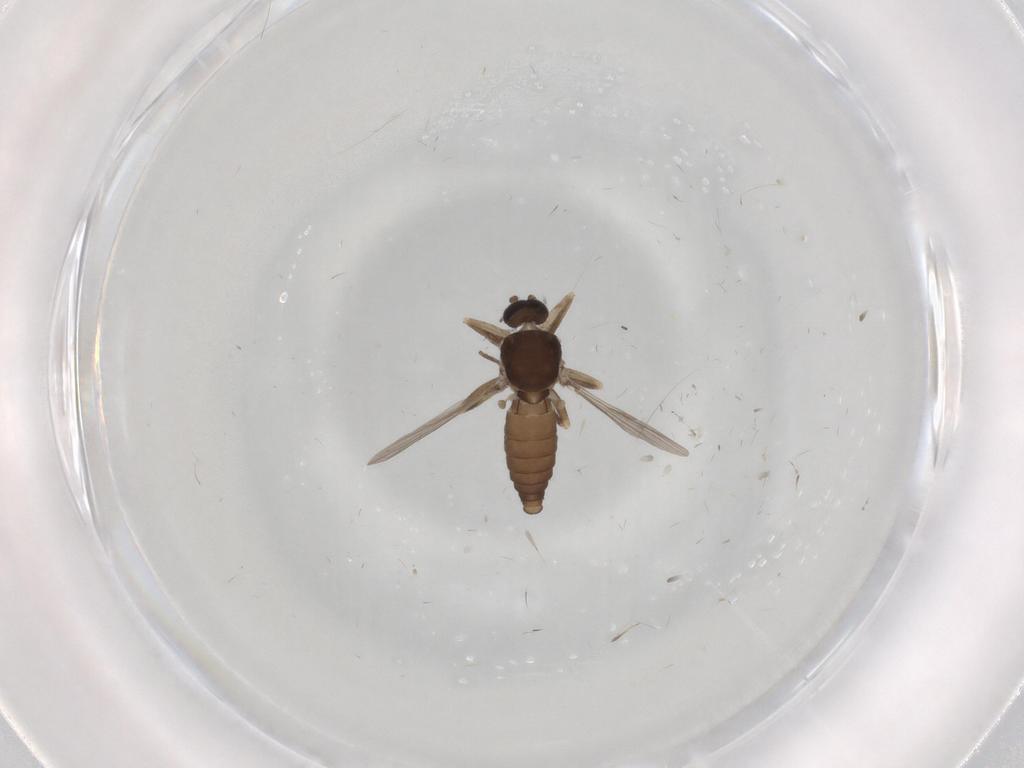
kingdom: Animalia
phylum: Arthropoda
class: Insecta
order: Diptera
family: Ceratopogonidae
